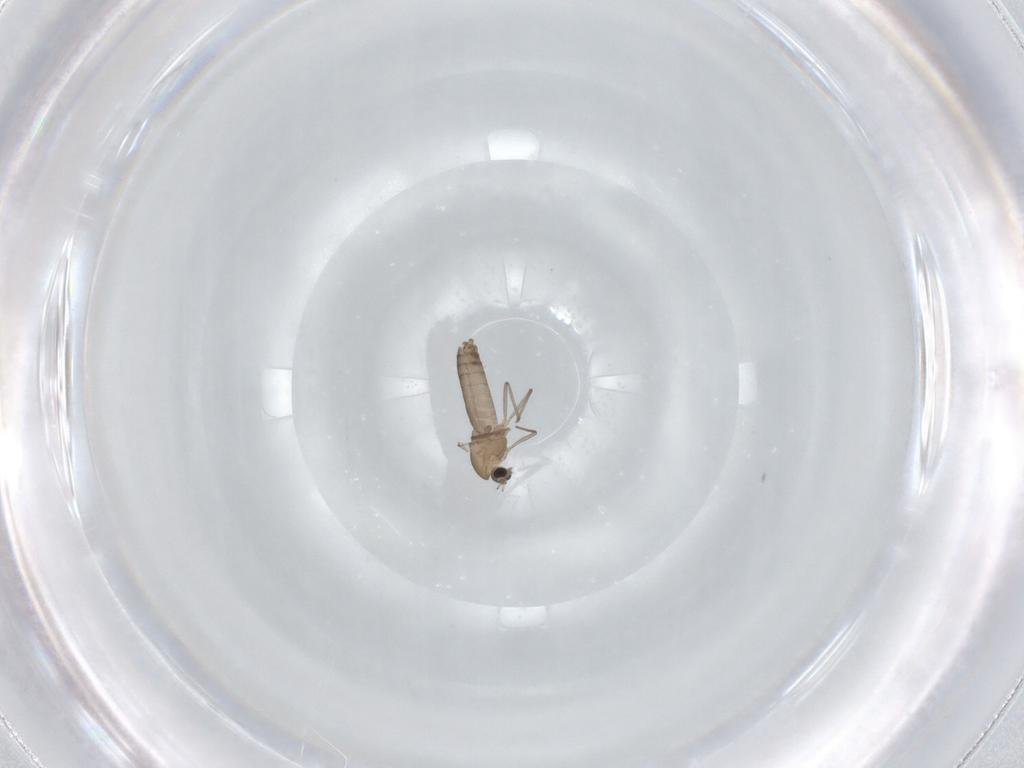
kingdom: Animalia
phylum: Arthropoda
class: Insecta
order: Diptera
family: Chironomidae
